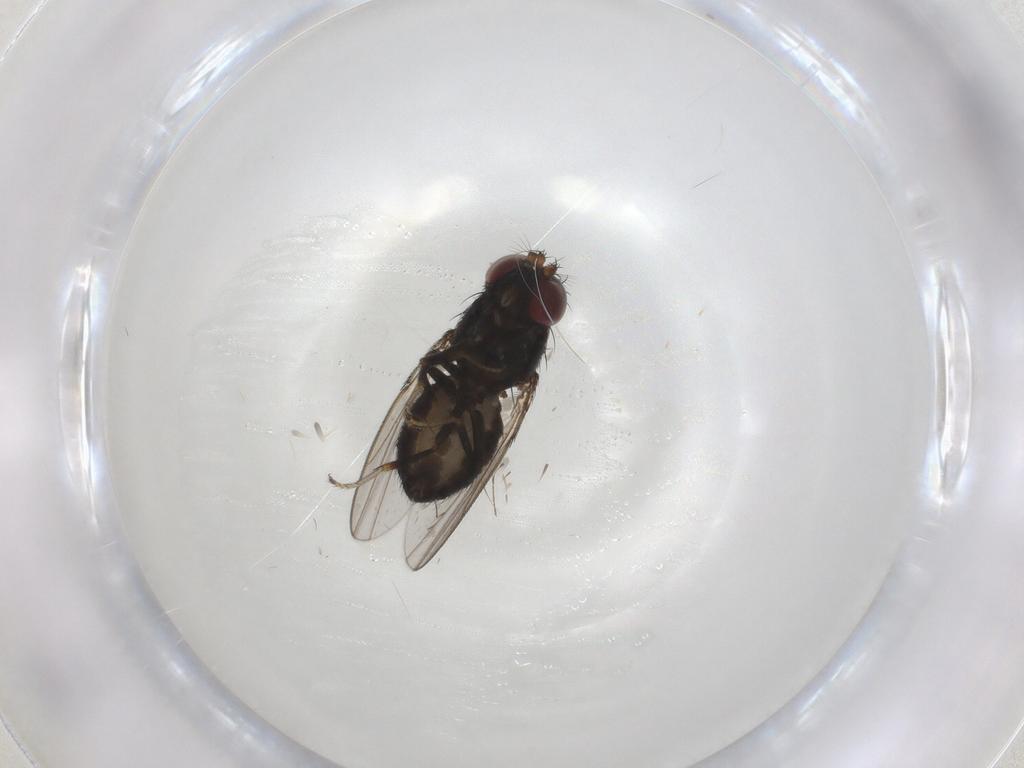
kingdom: Animalia
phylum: Arthropoda
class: Insecta
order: Diptera
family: Ephydridae
